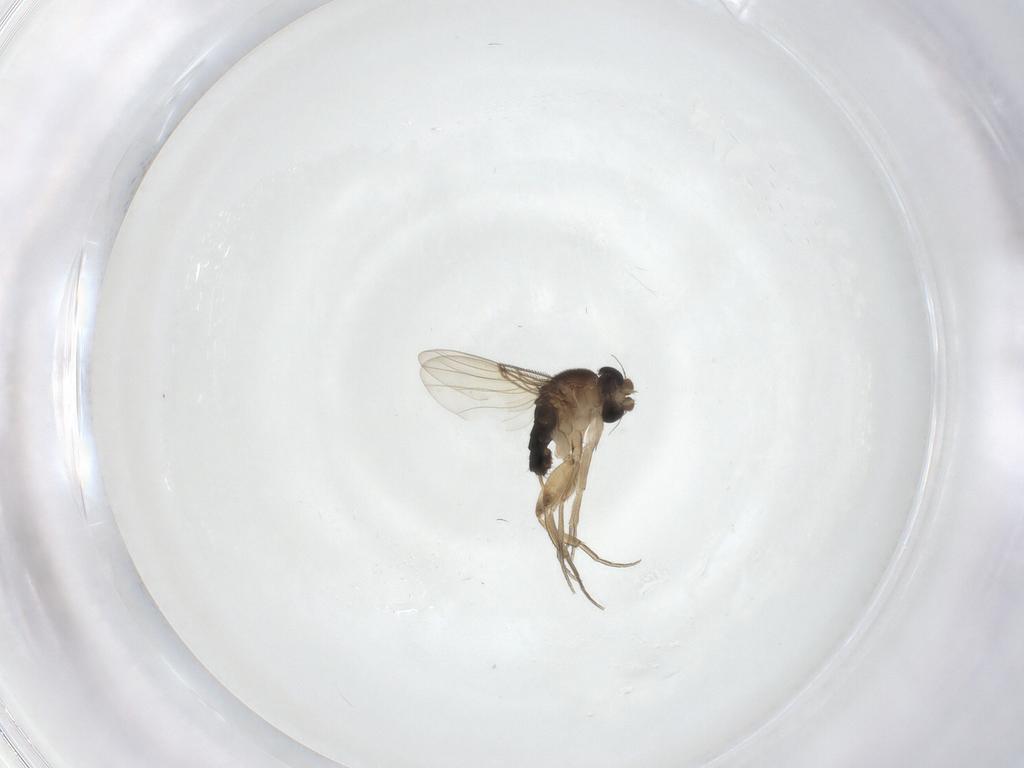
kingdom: Animalia
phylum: Arthropoda
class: Insecta
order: Diptera
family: Phoridae
